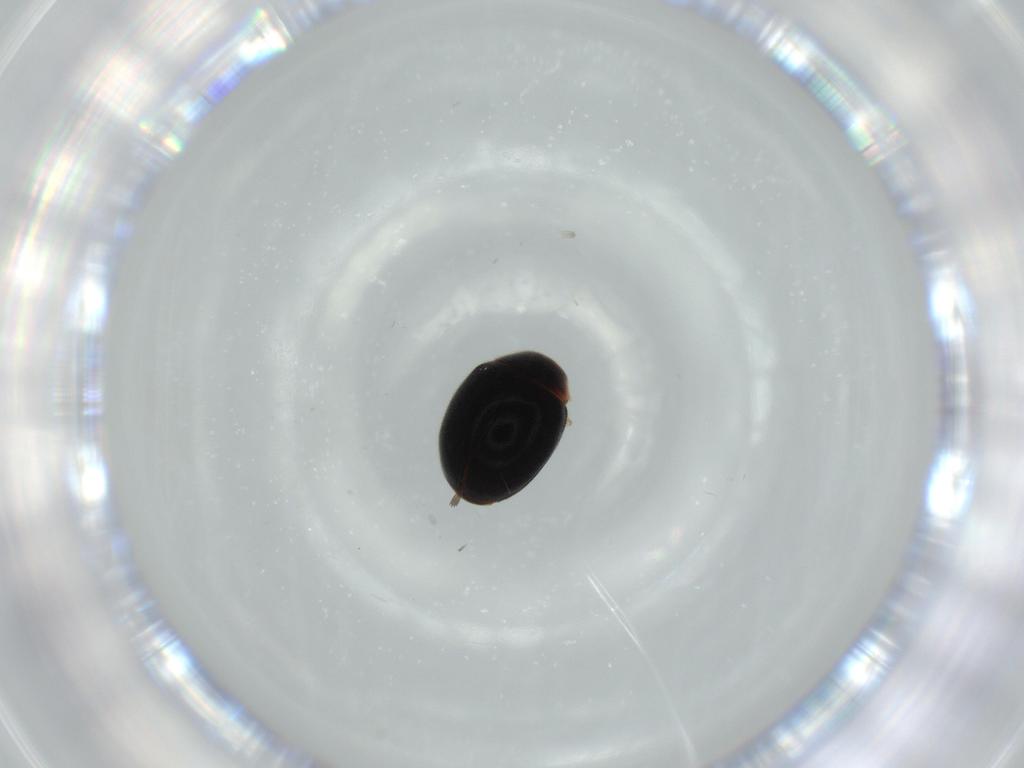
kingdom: Animalia
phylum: Arthropoda
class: Insecta
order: Coleoptera
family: Coccinellidae
